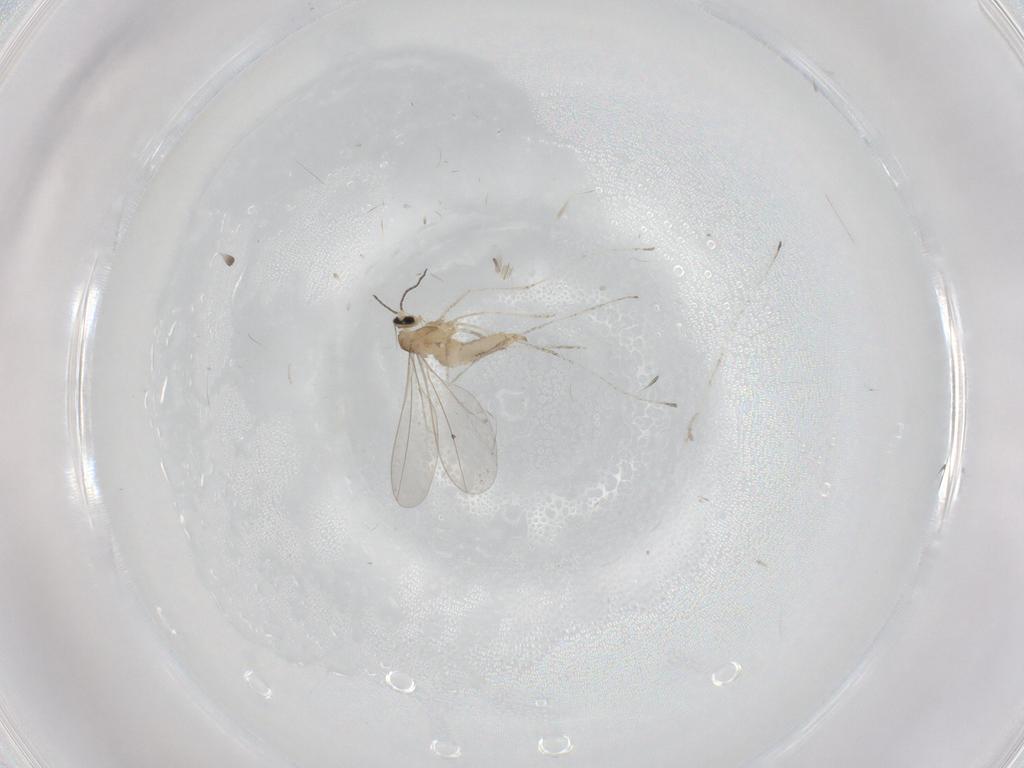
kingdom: Animalia
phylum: Arthropoda
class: Insecta
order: Diptera
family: Cecidomyiidae
